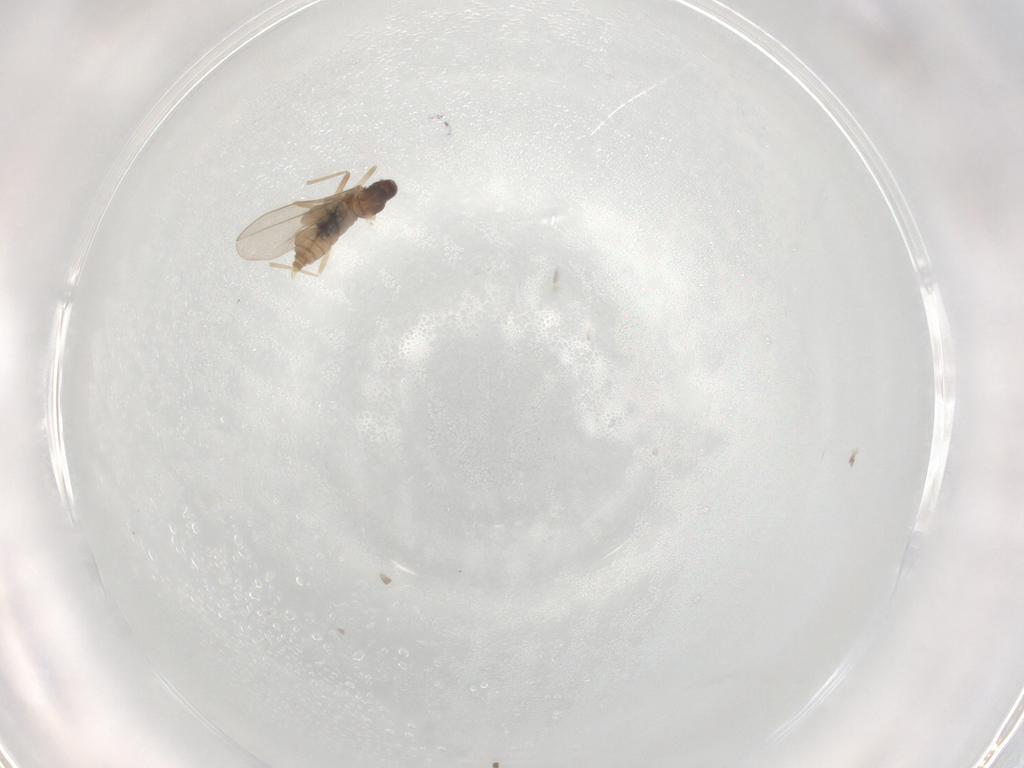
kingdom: Animalia
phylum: Arthropoda
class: Insecta
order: Diptera
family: Cecidomyiidae
